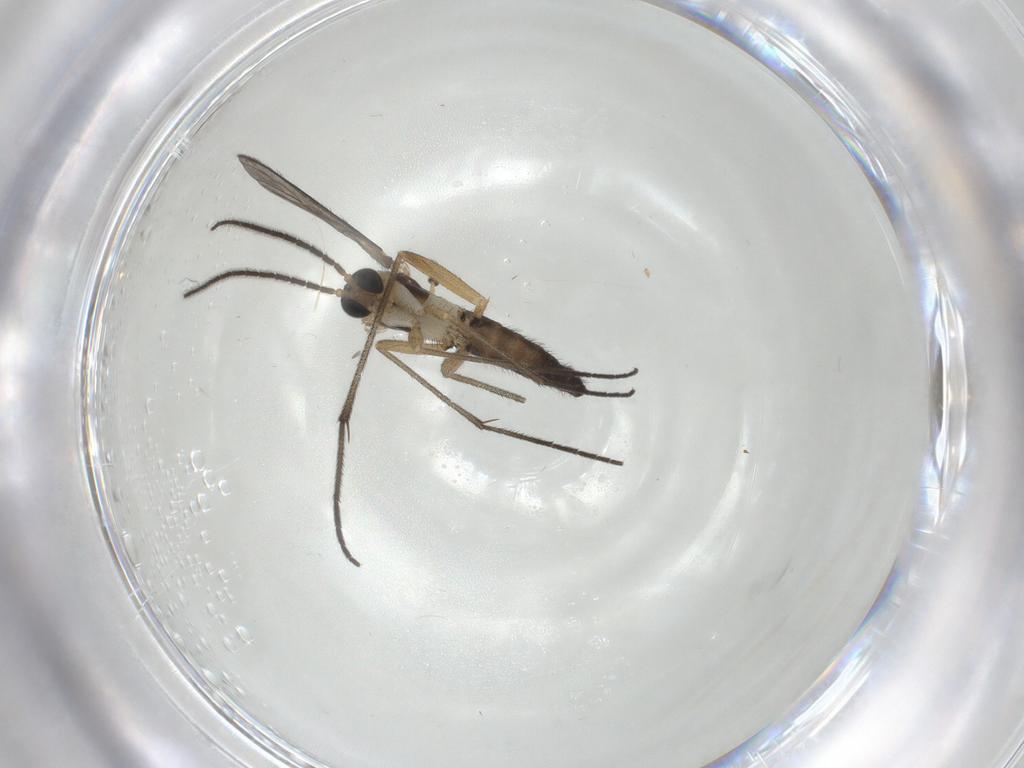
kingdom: Animalia
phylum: Arthropoda
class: Insecta
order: Diptera
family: Sciaridae
